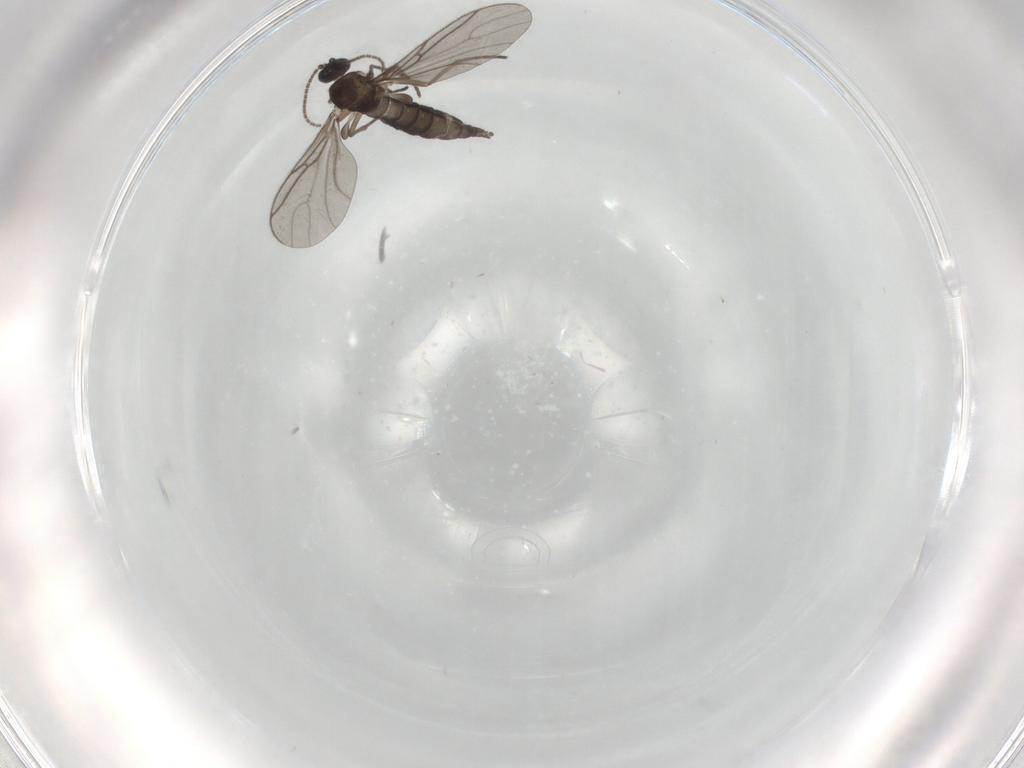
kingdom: Animalia
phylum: Arthropoda
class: Insecta
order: Diptera
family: Cecidomyiidae
